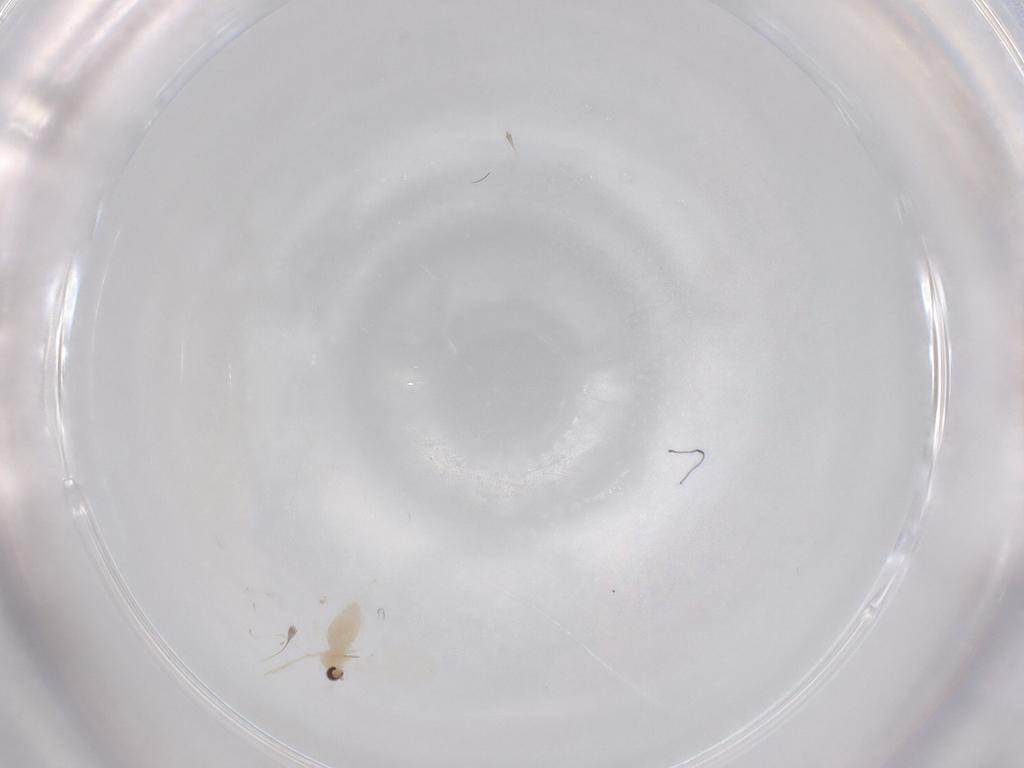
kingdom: Animalia
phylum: Arthropoda
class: Insecta
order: Diptera
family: Cecidomyiidae
